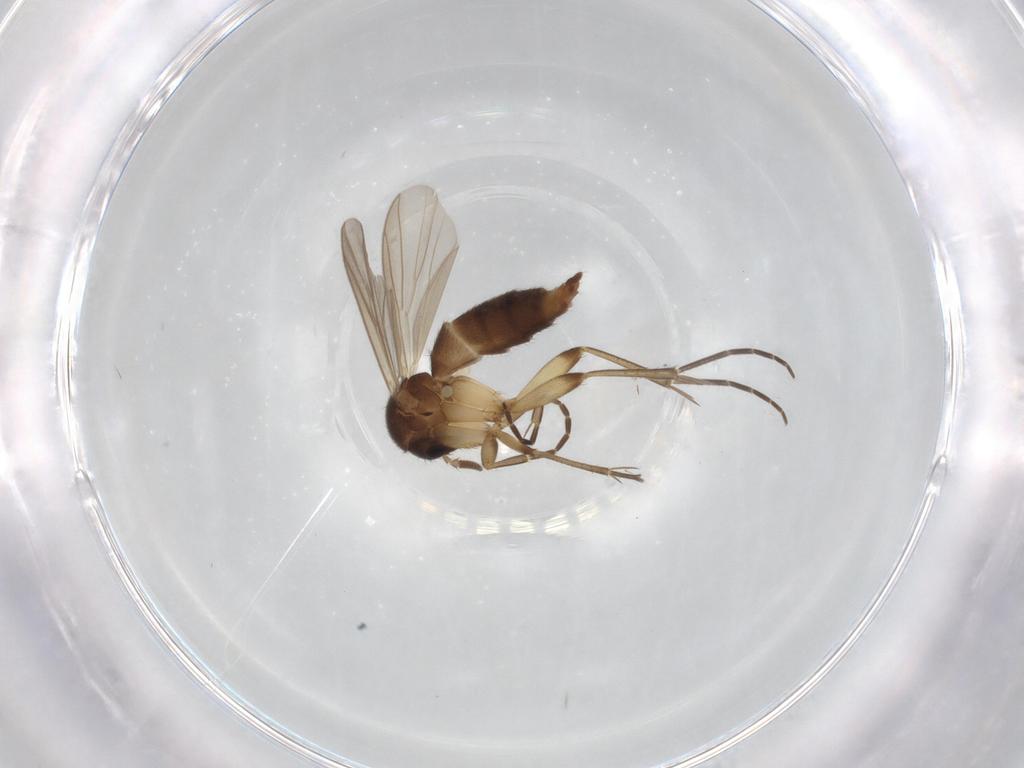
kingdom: Animalia
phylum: Arthropoda
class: Insecta
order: Diptera
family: Mycetophilidae
